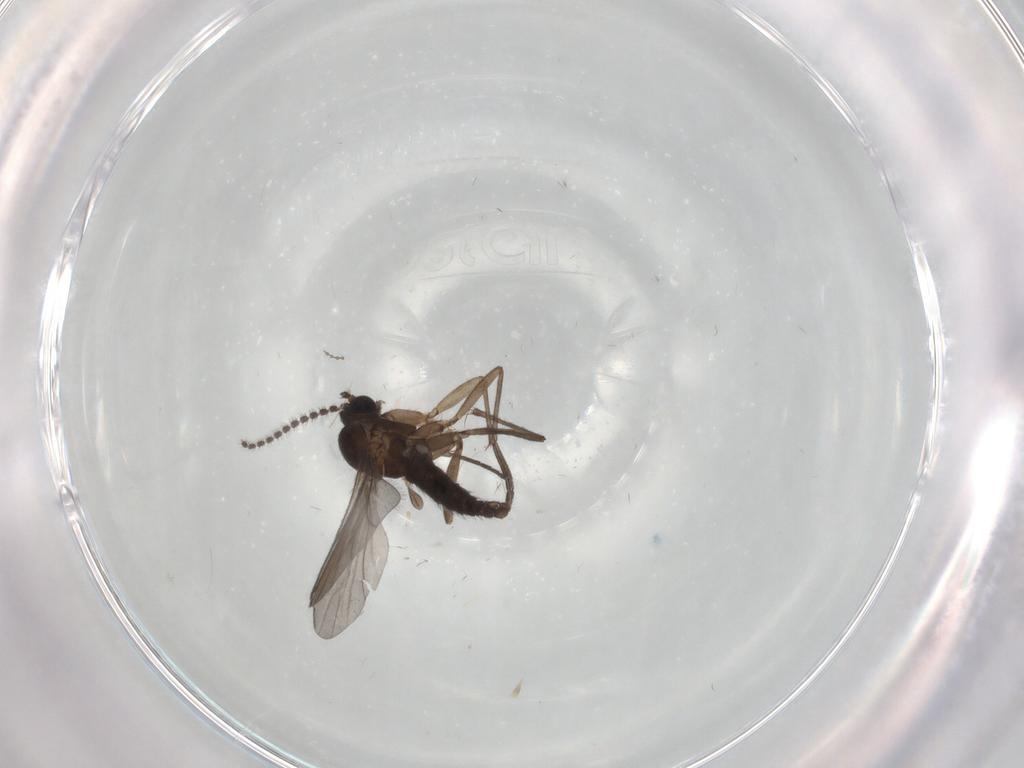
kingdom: Animalia
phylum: Arthropoda
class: Insecta
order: Diptera
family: Sciaridae
